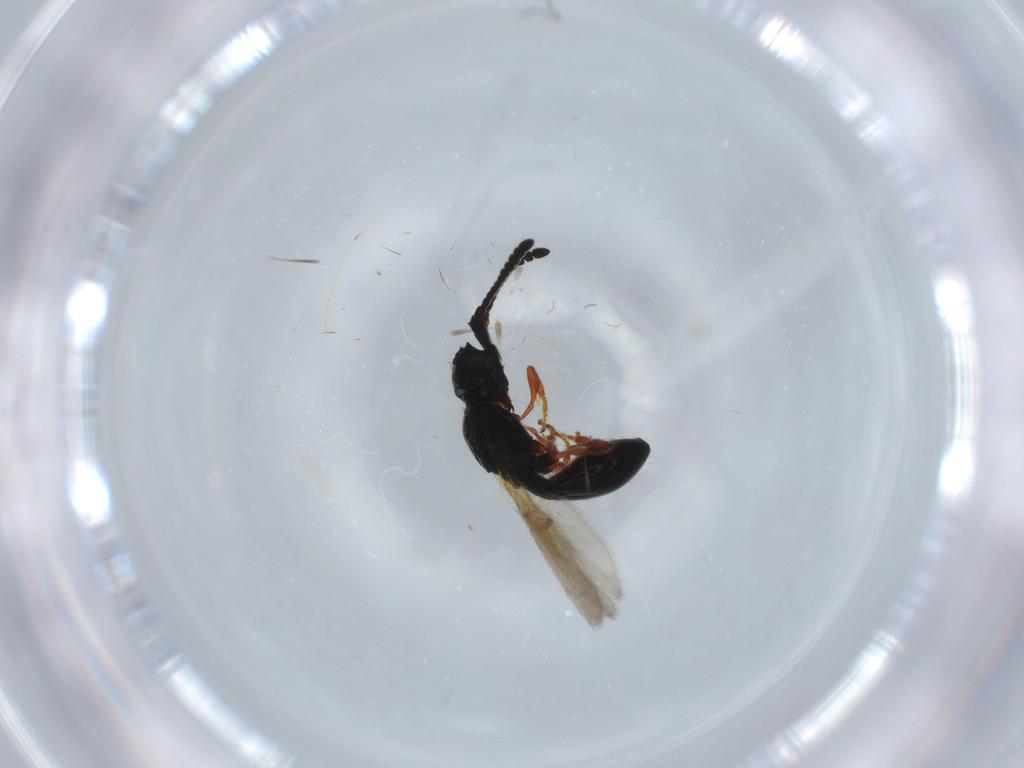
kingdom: Animalia
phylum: Arthropoda
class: Insecta
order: Hymenoptera
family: Diapriidae
